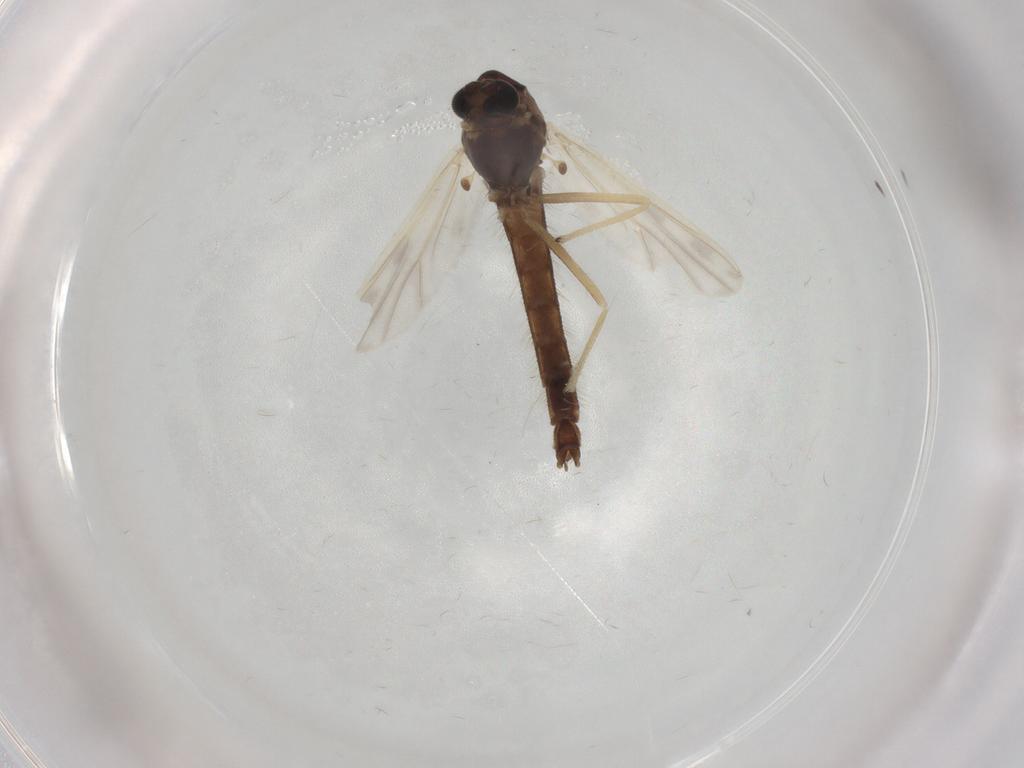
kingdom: Animalia
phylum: Arthropoda
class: Insecta
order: Diptera
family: Chironomidae
